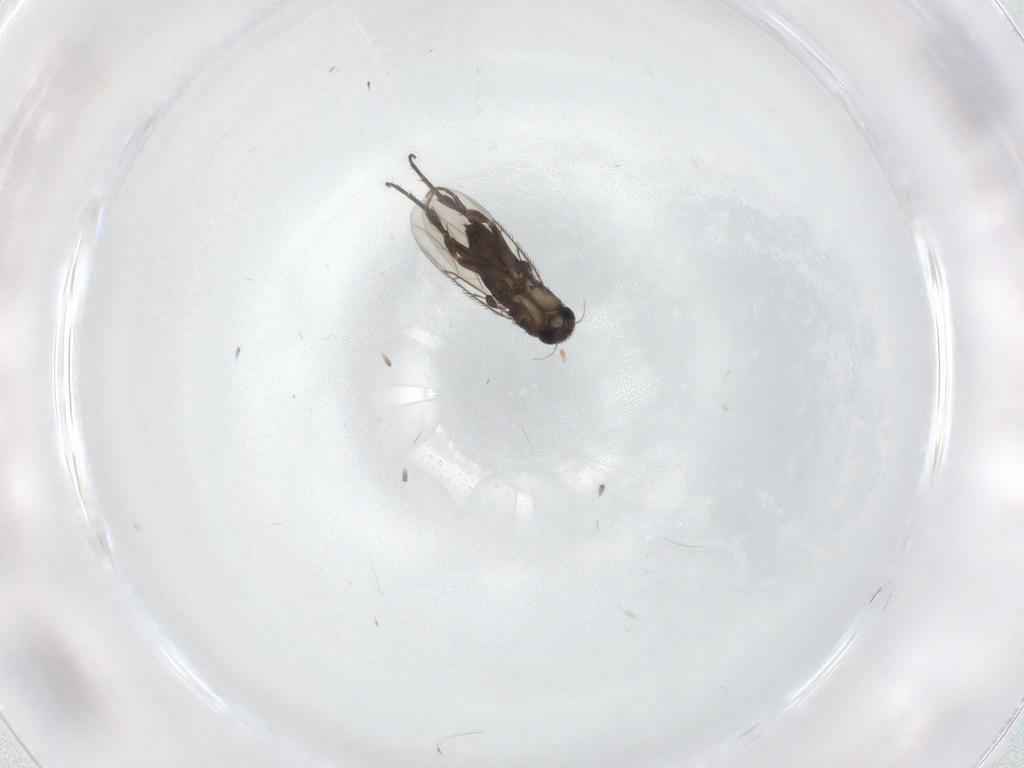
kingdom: Animalia
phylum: Arthropoda
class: Insecta
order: Diptera
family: Phoridae
